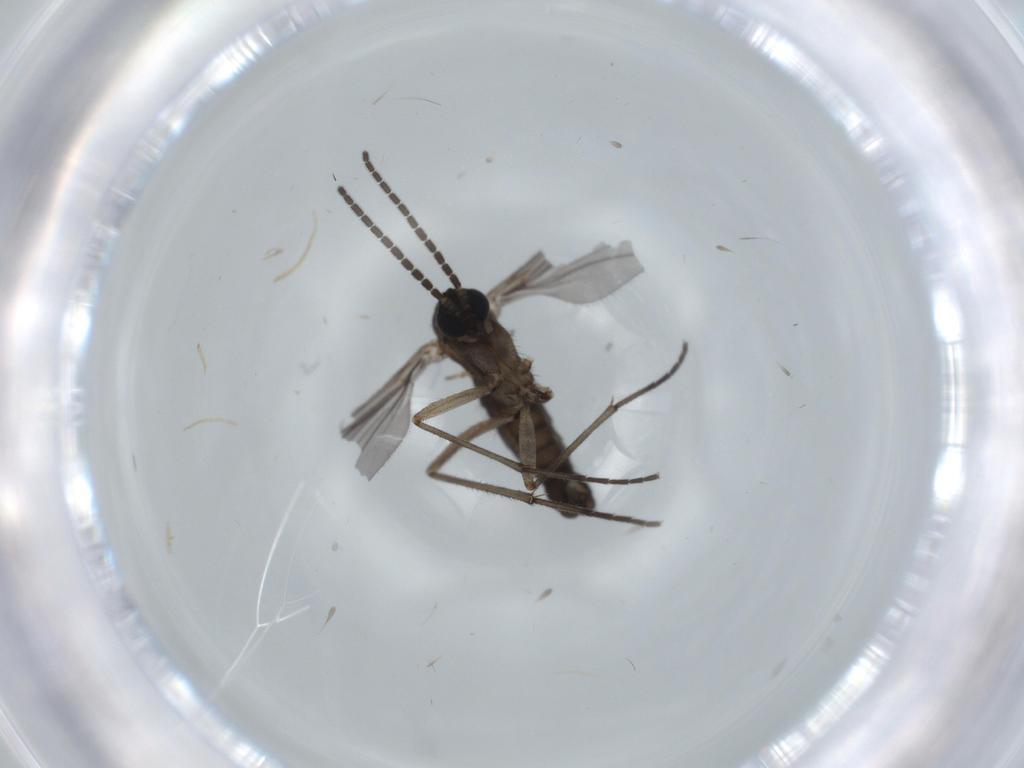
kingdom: Animalia
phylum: Arthropoda
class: Insecta
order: Diptera
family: Sciaridae
